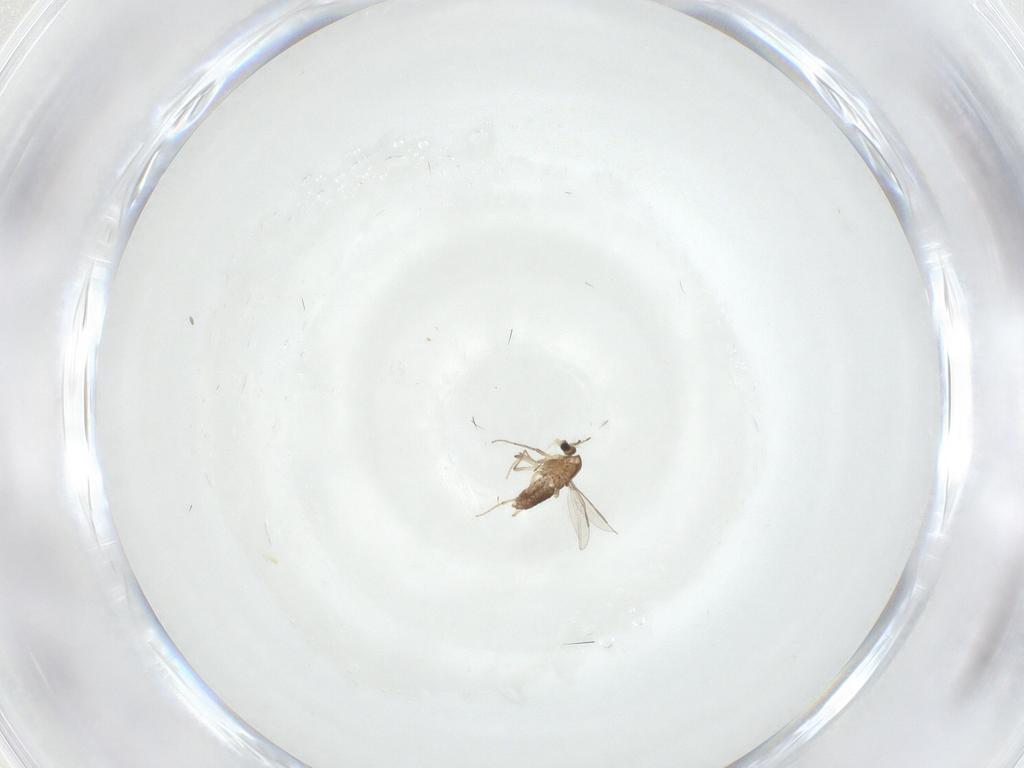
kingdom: Animalia
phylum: Arthropoda
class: Insecta
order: Diptera
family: Chironomidae
